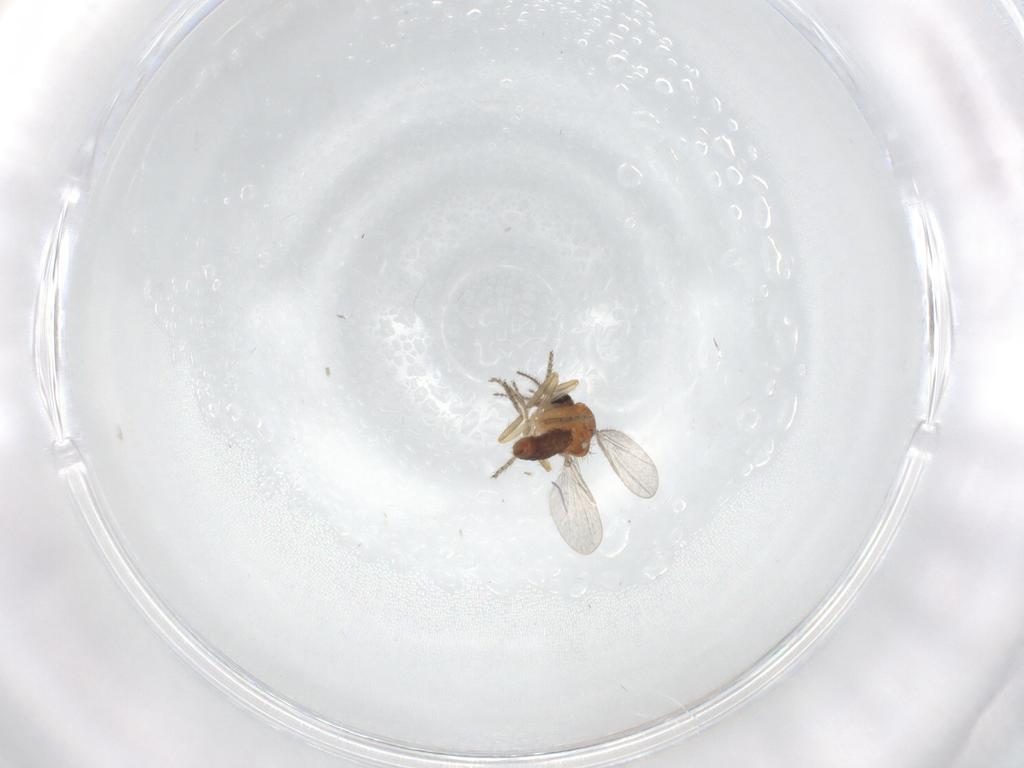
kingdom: Animalia
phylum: Arthropoda
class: Insecta
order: Diptera
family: Ceratopogonidae
